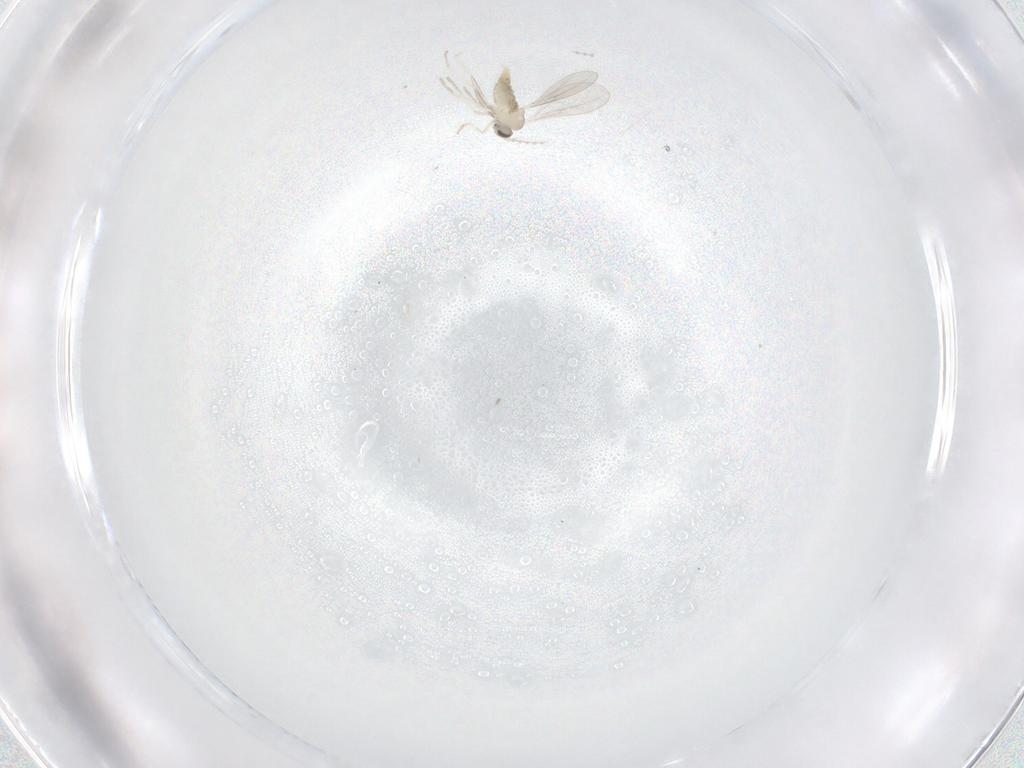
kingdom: Animalia
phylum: Arthropoda
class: Insecta
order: Diptera
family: Cecidomyiidae
